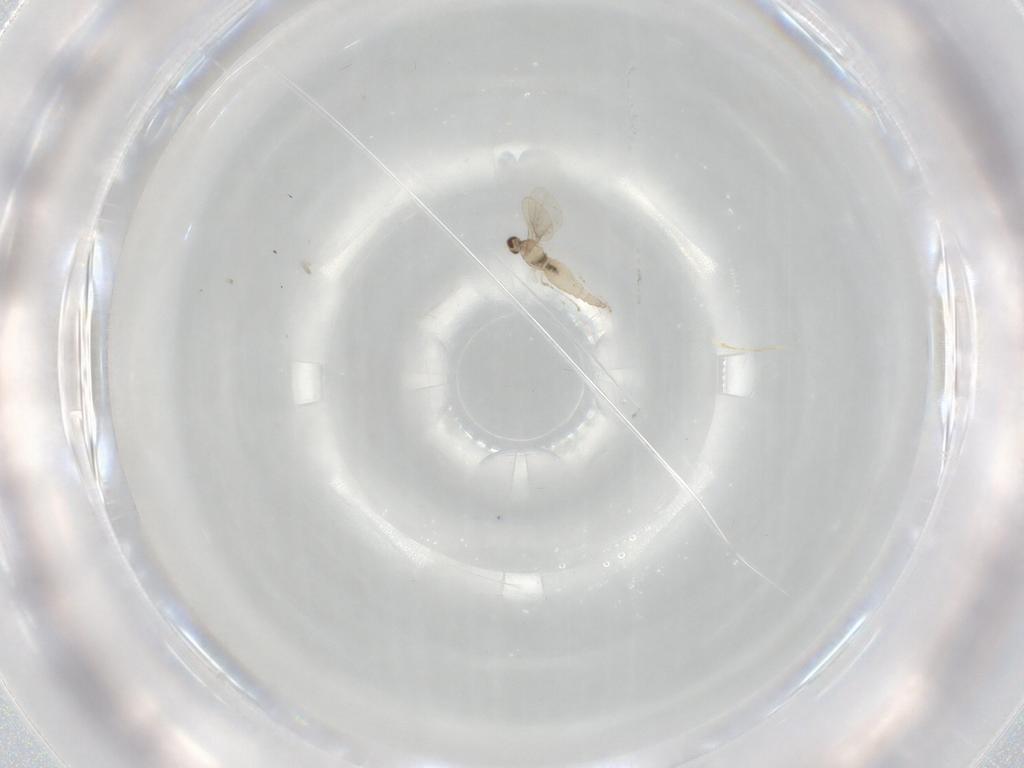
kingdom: Animalia
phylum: Arthropoda
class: Insecta
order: Diptera
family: Cecidomyiidae
